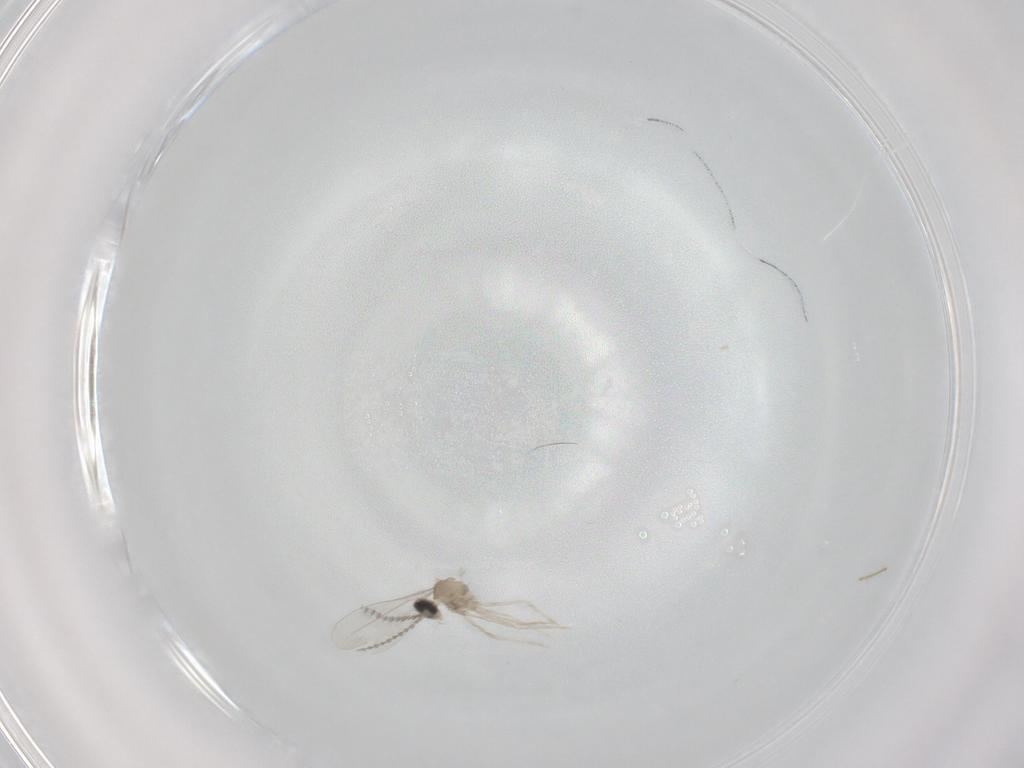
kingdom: Animalia
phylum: Arthropoda
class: Insecta
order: Diptera
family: Cecidomyiidae
